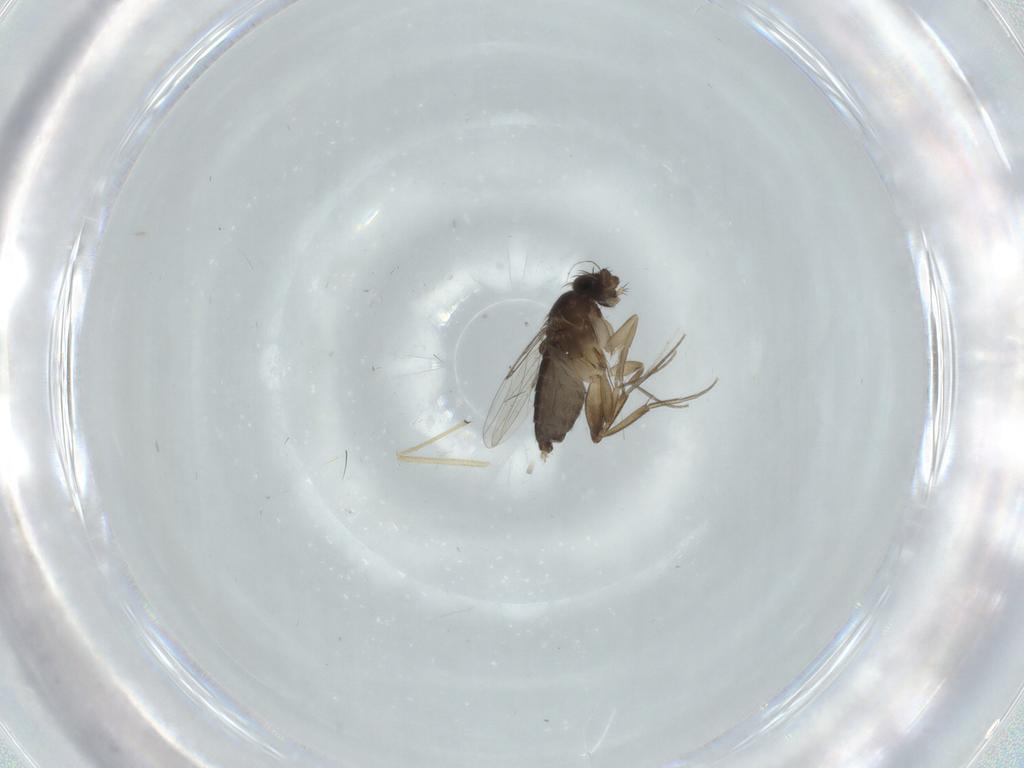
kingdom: Animalia
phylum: Arthropoda
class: Insecta
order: Diptera
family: Phoridae
